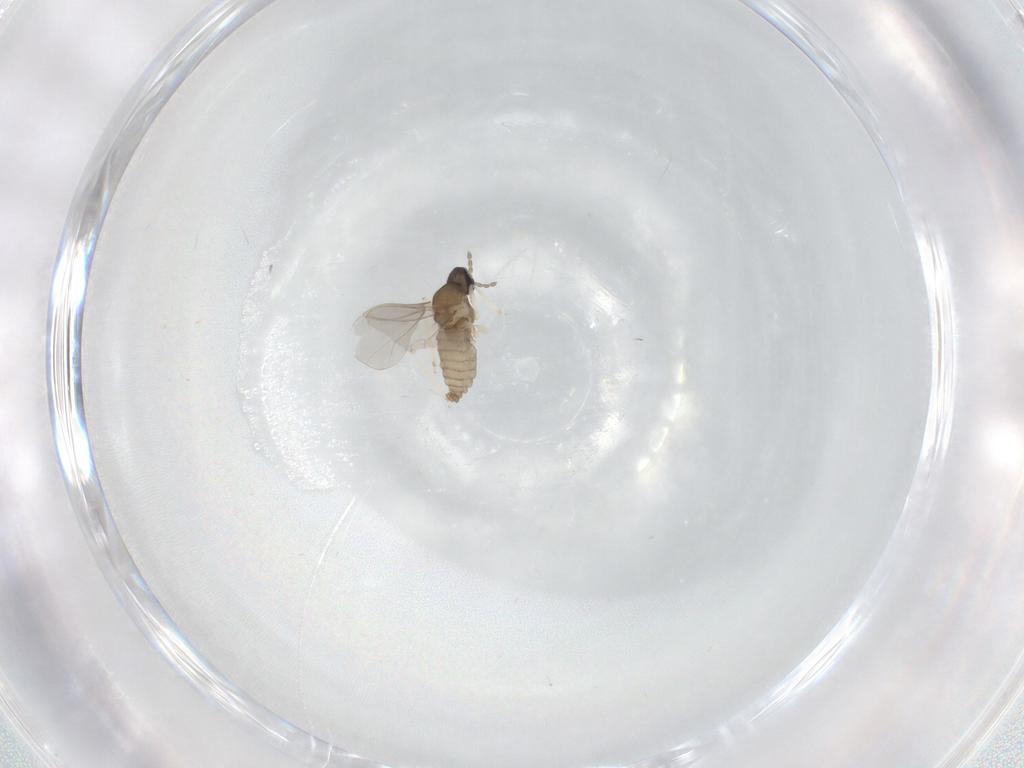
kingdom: Animalia
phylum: Arthropoda
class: Insecta
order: Diptera
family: Cecidomyiidae
